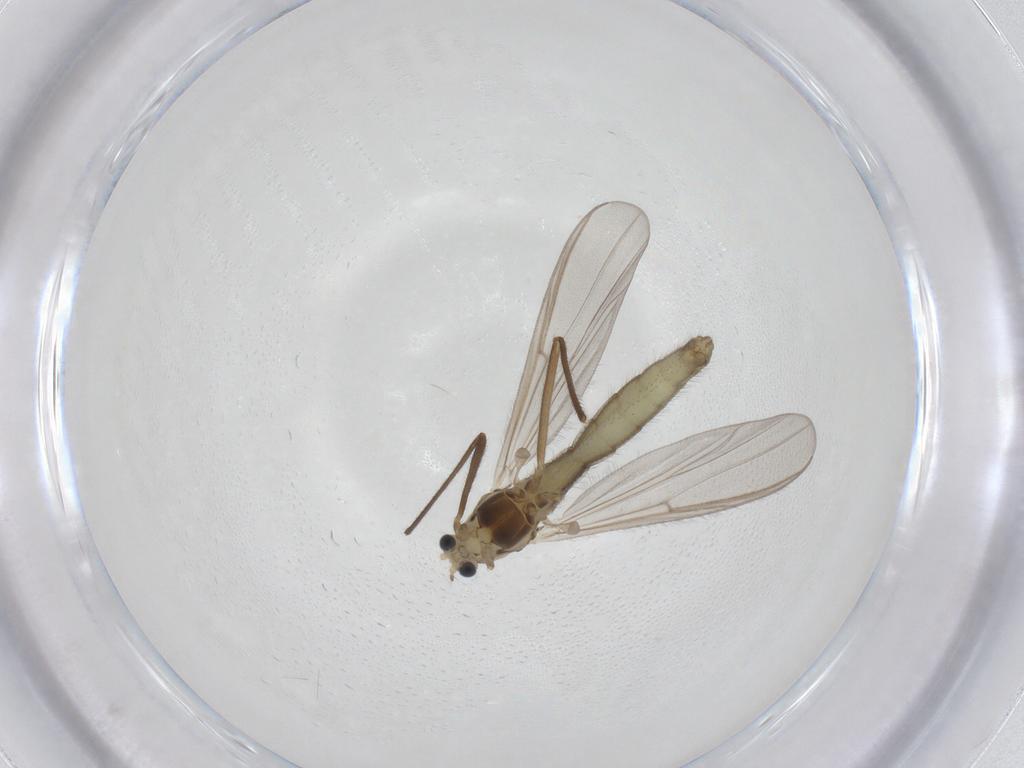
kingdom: Animalia
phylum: Arthropoda
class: Insecta
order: Diptera
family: Chironomidae
